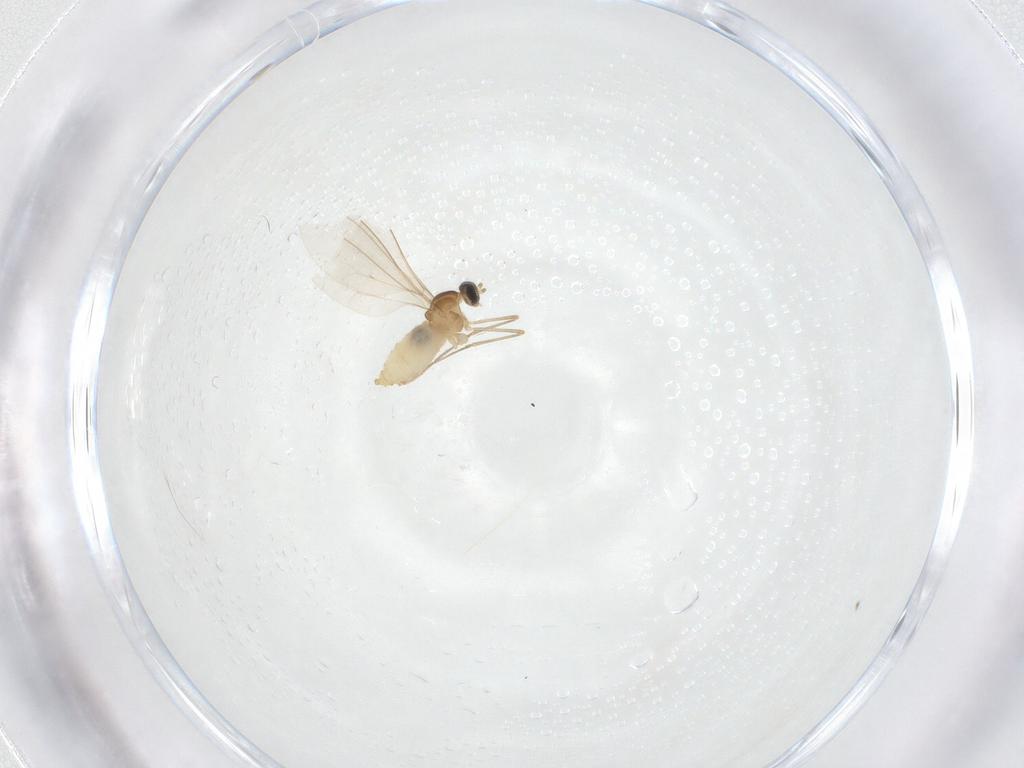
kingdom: Animalia
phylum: Arthropoda
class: Insecta
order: Diptera
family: Cecidomyiidae
